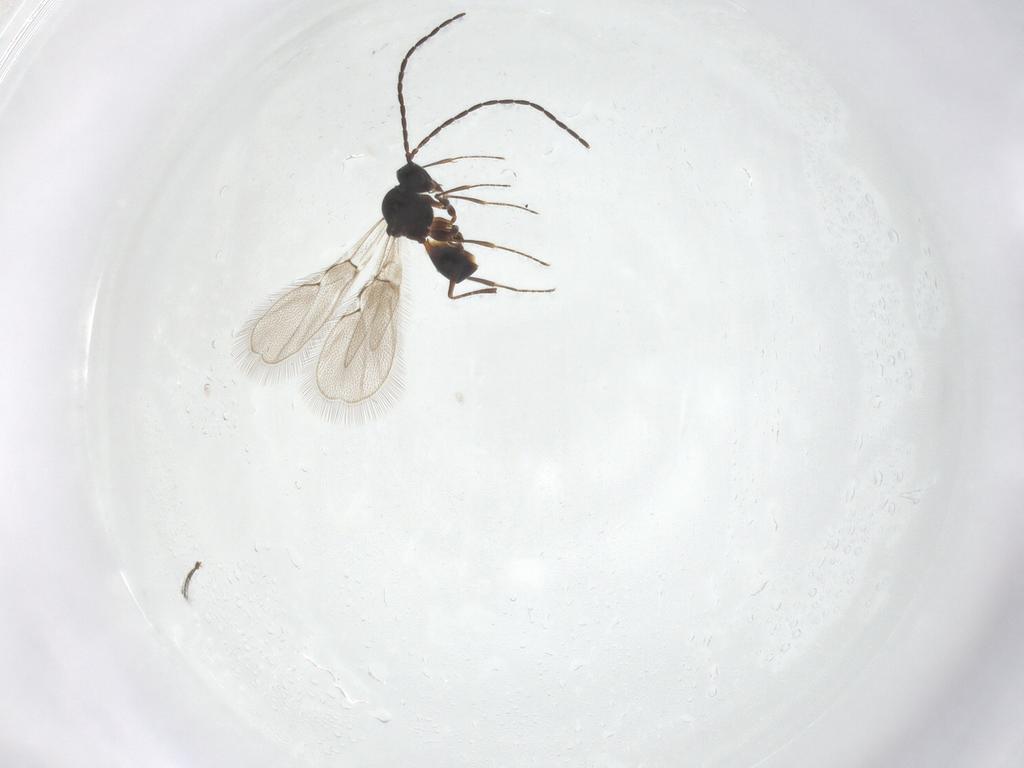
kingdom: Animalia
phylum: Arthropoda
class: Insecta
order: Hymenoptera
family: Figitidae
